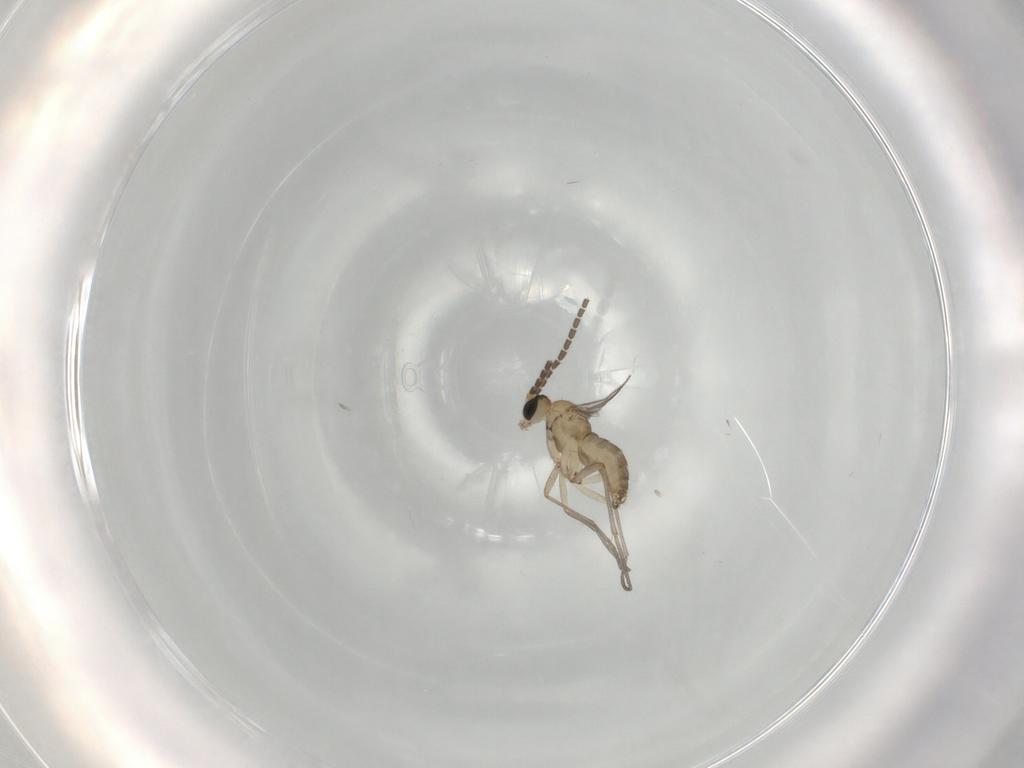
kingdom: Animalia
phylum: Arthropoda
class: Insecta
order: Diptera
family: Sciaridae
